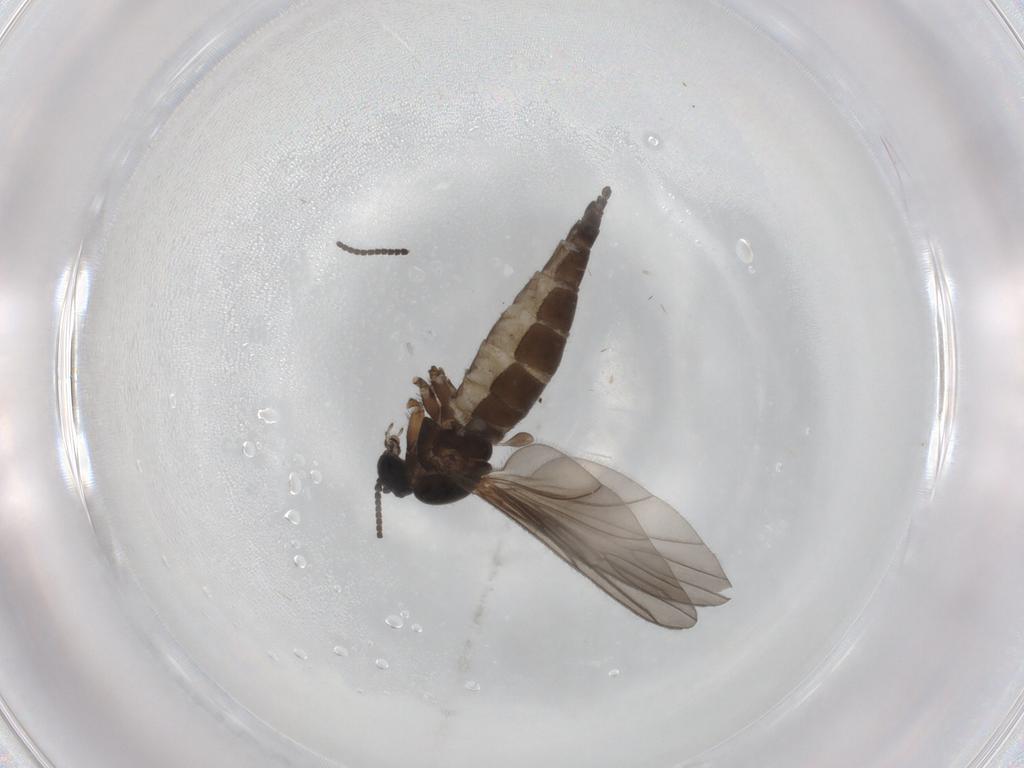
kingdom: Animalia
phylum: Arthropoda
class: Insecta
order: Diptera
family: Sciaridae
